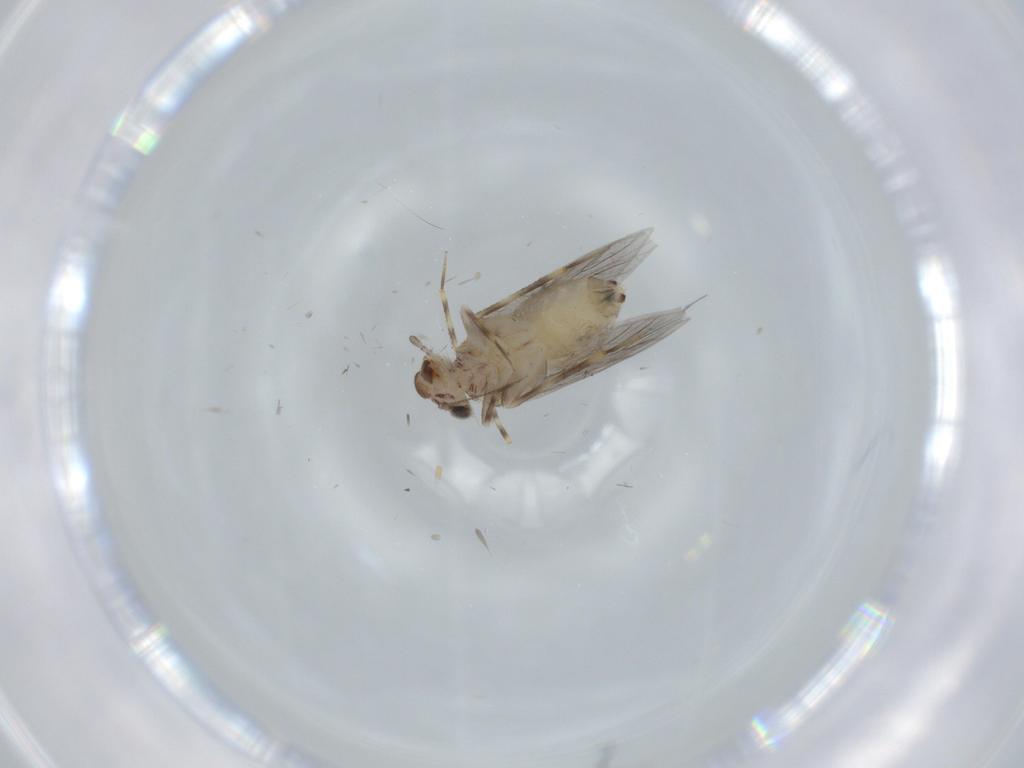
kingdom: Animalia
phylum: Arthropoda
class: Insecta
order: Psocodea
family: Lepidopsocidae
